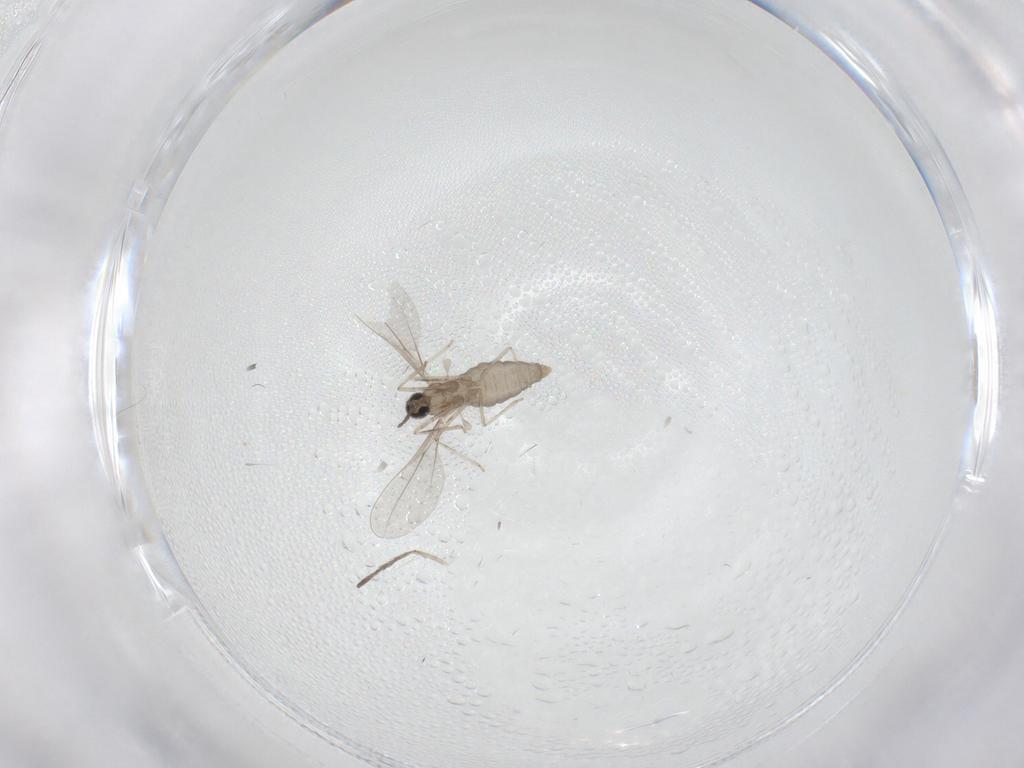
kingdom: Animalia
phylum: Arthropoda
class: Insecta
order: Diptera
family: Cecidomyiidae
